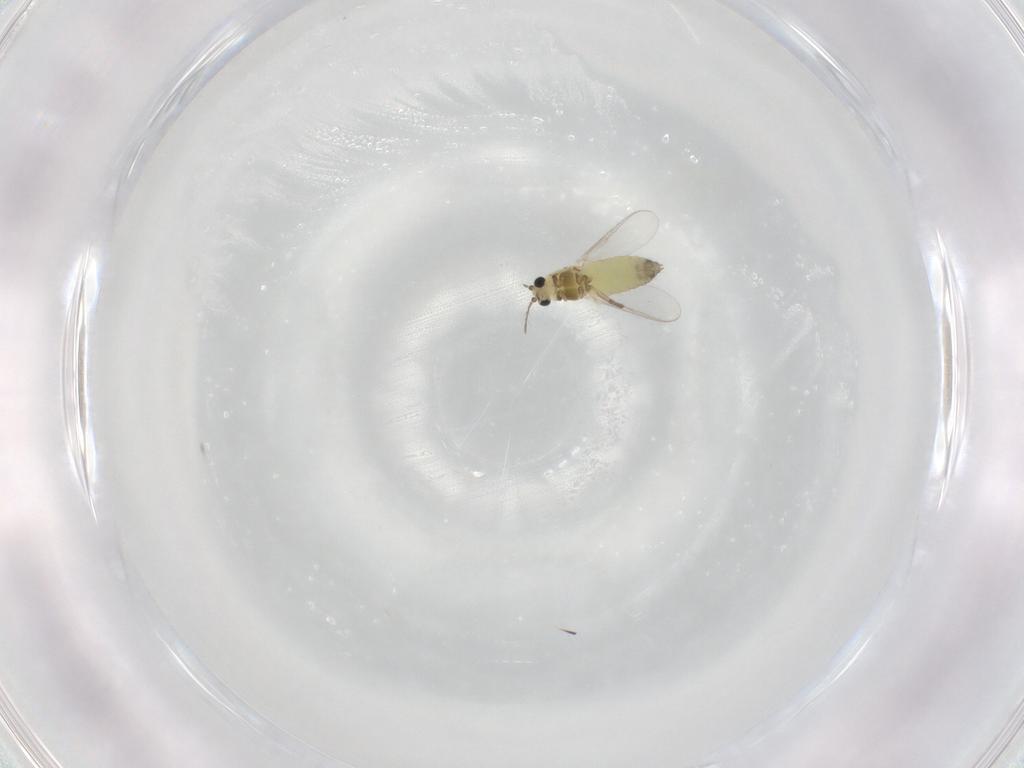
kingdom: Animalia
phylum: Arthropoda
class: Insecta
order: Diptera
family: Chironomidae
